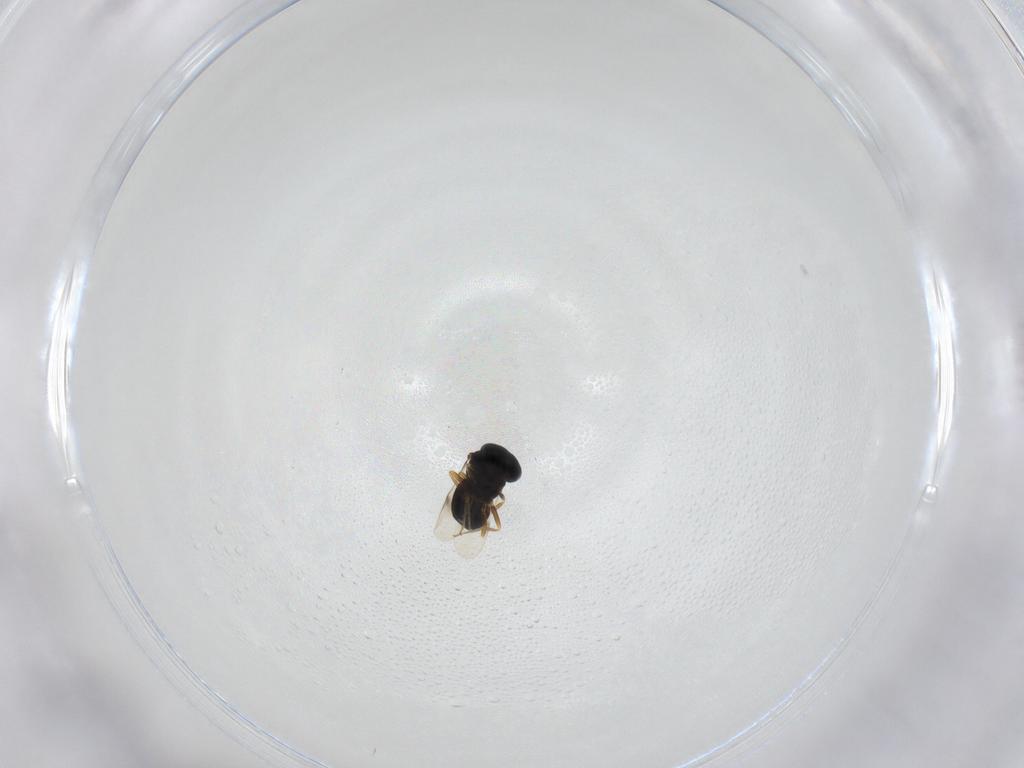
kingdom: Animalia
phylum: Arthropoda
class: Insecta
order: Hymenoptera
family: Scelionidae
